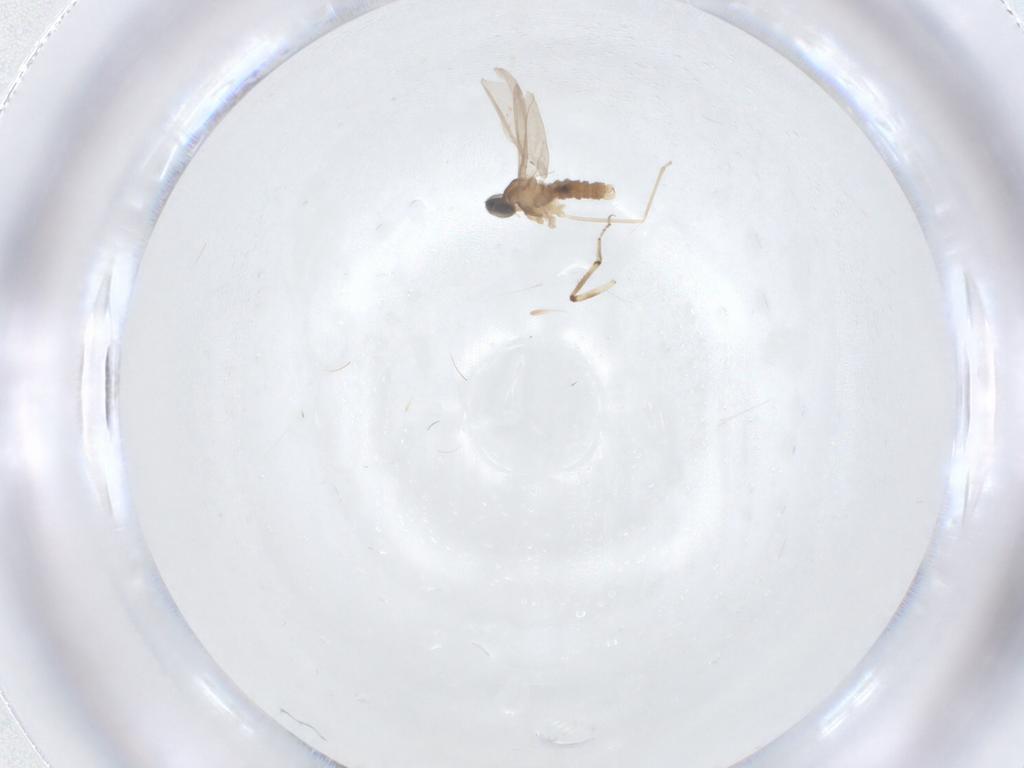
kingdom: Animalia
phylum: Arthropoda
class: Insecta
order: Diptera
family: Cecidomyiidae
